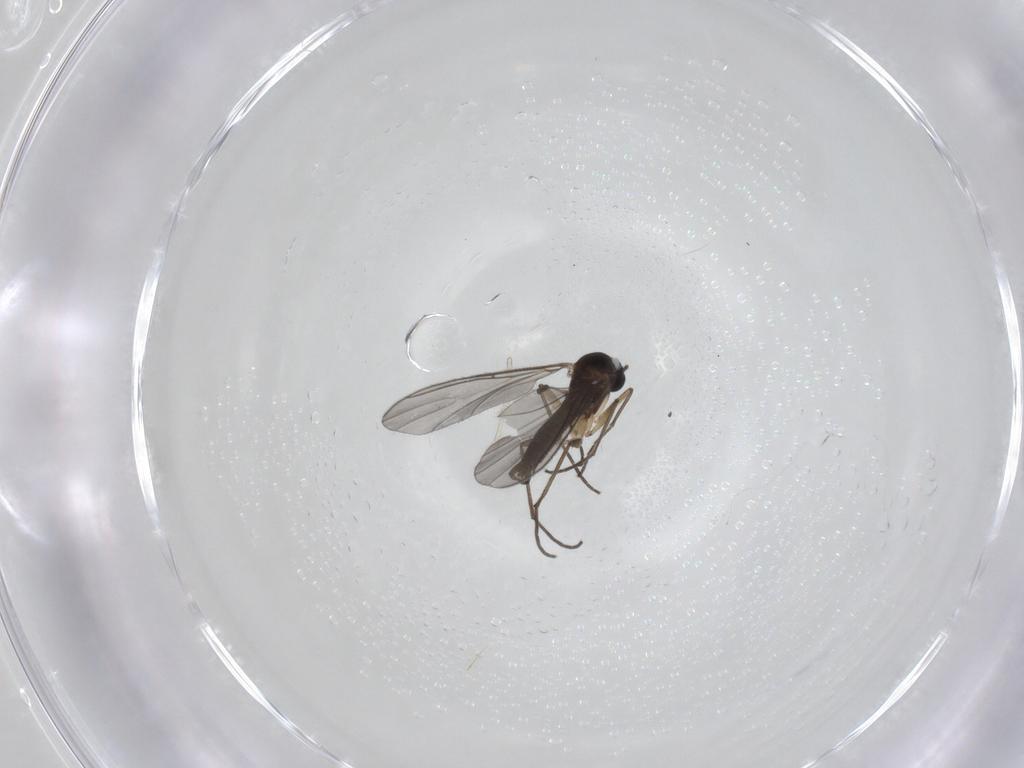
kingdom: Animalia
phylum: Arthropoda
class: Insecta
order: Diptera
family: Sciaridae
